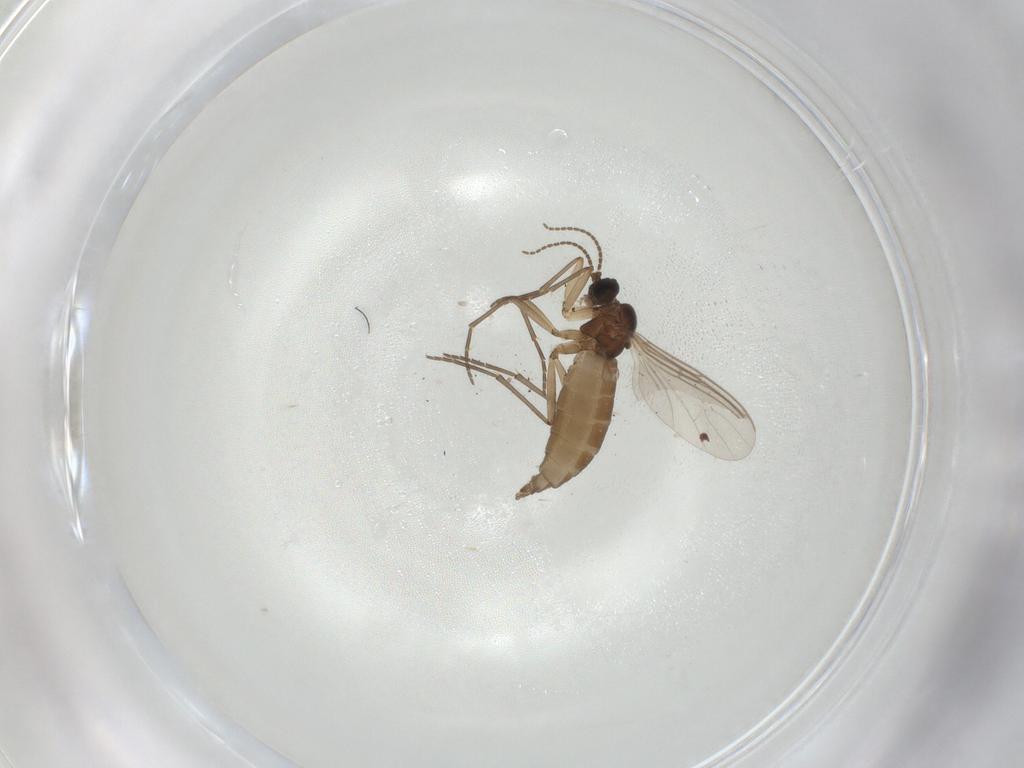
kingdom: Animalia
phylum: Arthropoda
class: Insecta
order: Diptera
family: Sciaridae
